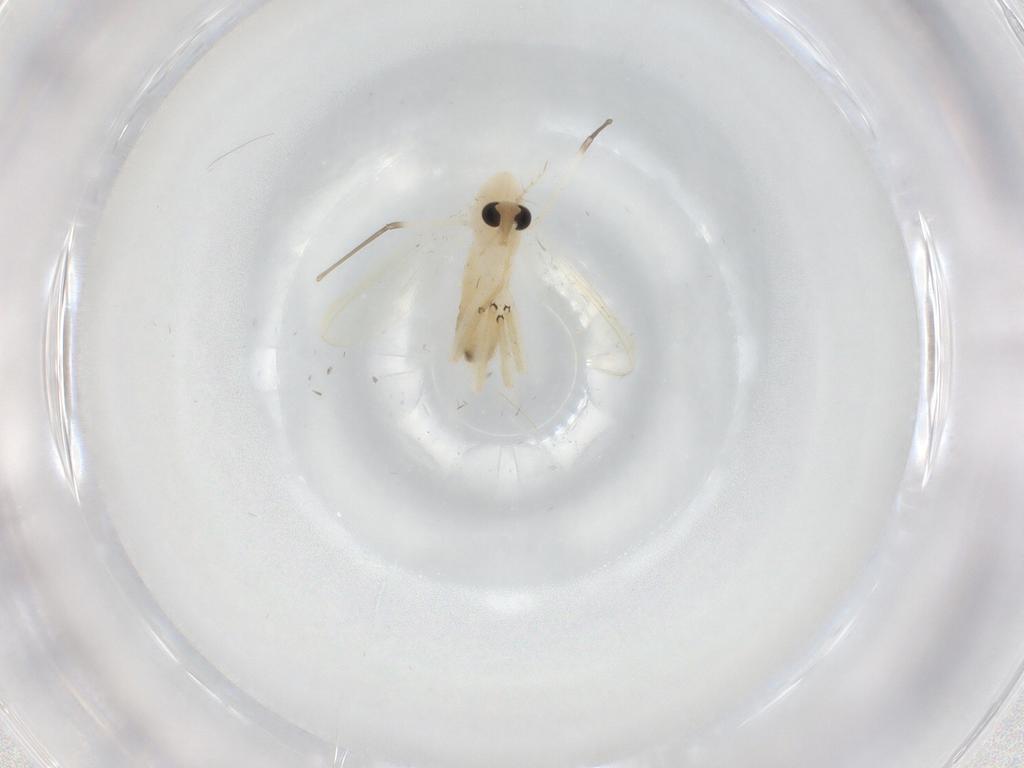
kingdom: Animalia
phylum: Arthropoda
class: Insecta
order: Diptera
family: Chironomidae
